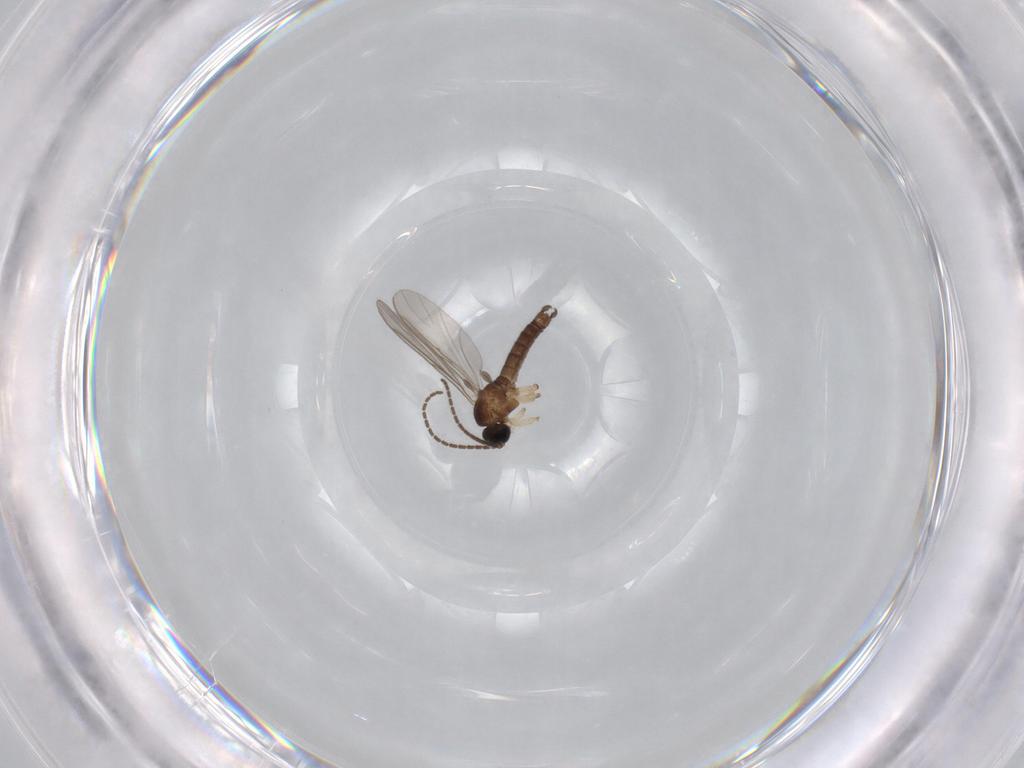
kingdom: Animalia
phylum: Arthropoda
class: Insecta
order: Diptera
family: Sciaridae
